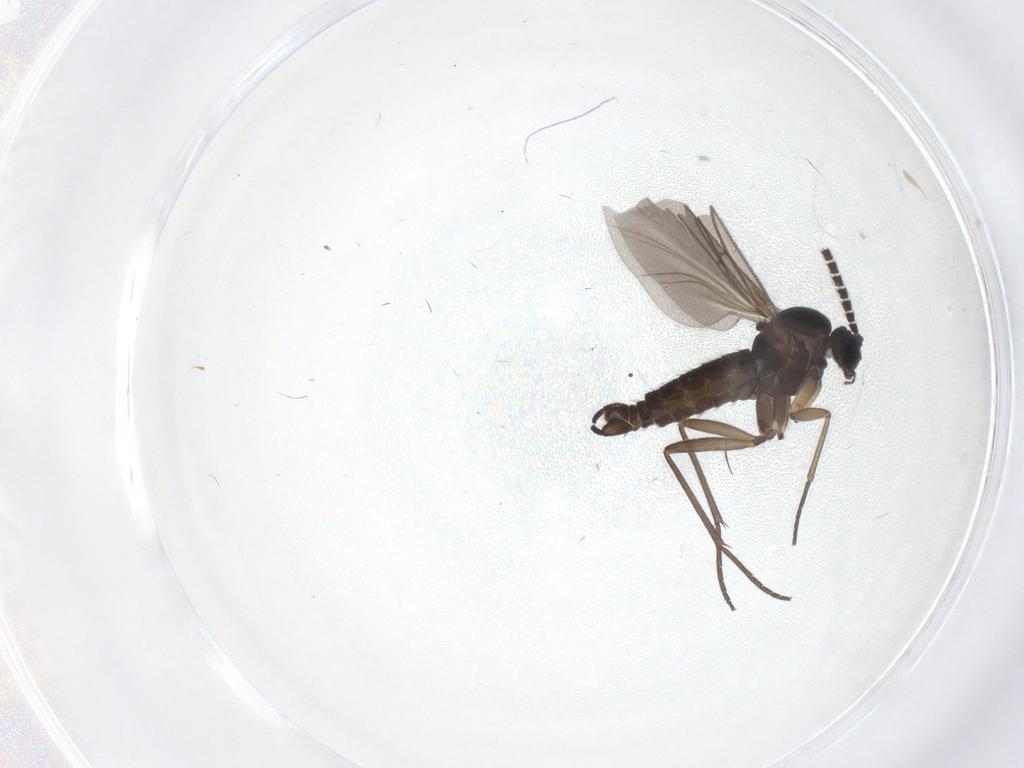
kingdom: Animalia
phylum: Arthropoda
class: Insecta
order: Diptera
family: Sciaridae
